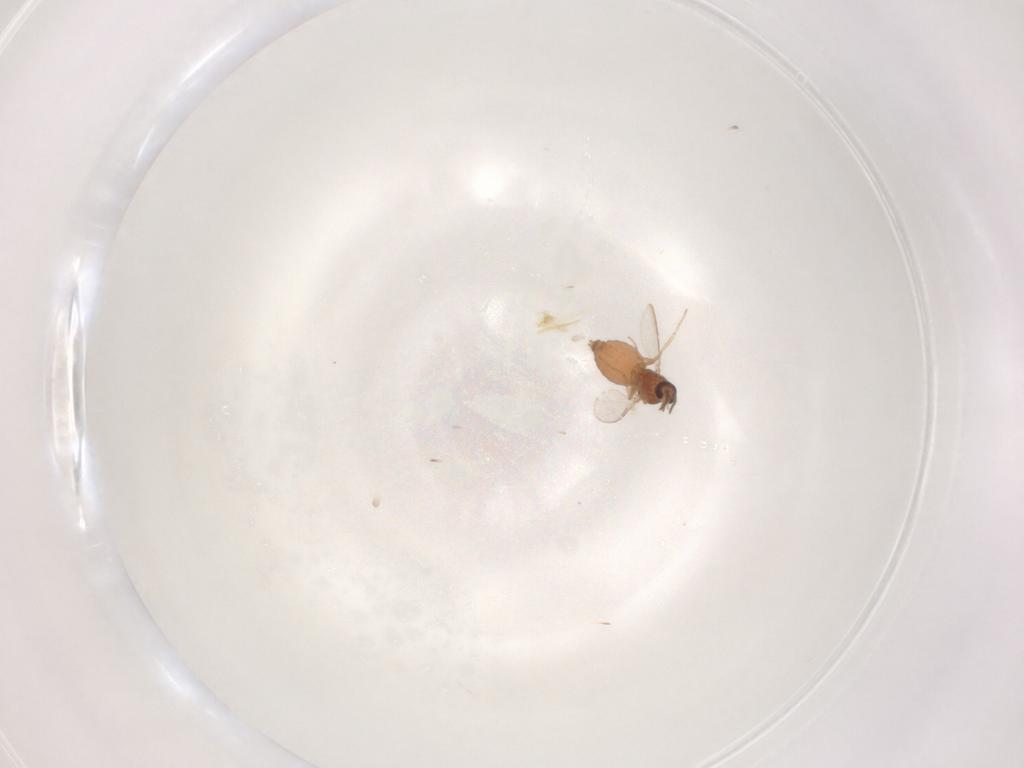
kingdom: Animalia
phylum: Arthropoda
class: Insecta
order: Diptera
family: Ceratopogonidae
